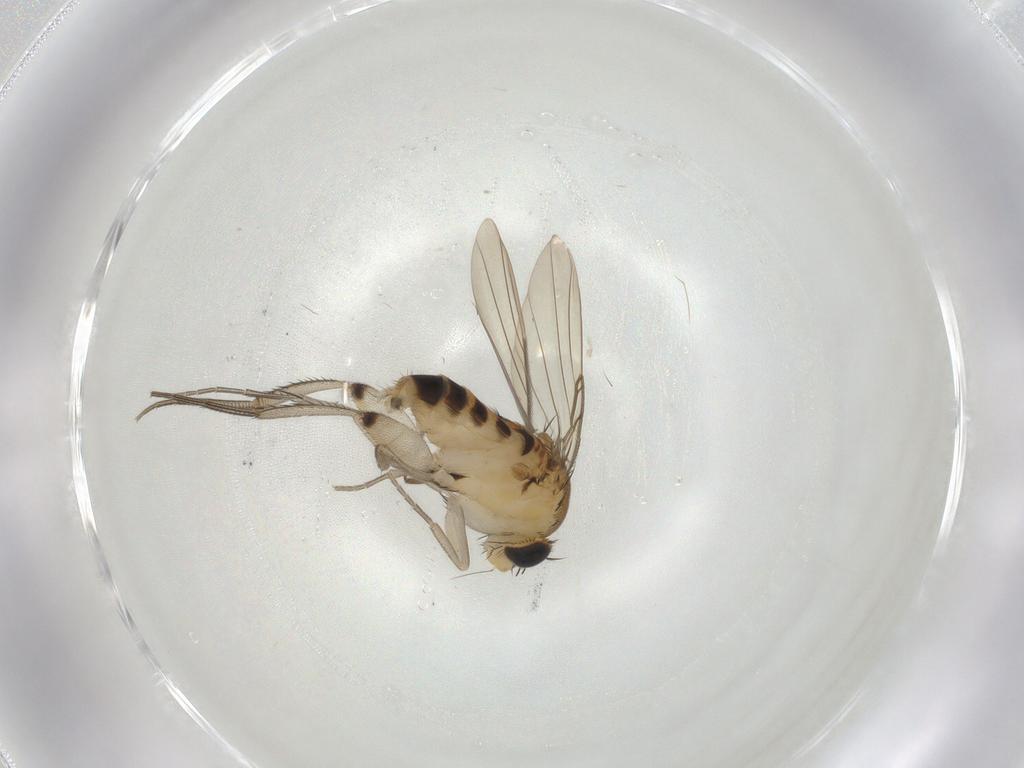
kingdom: Animalia
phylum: Arthropoda
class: Insecta
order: Diptera
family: Phoridae
